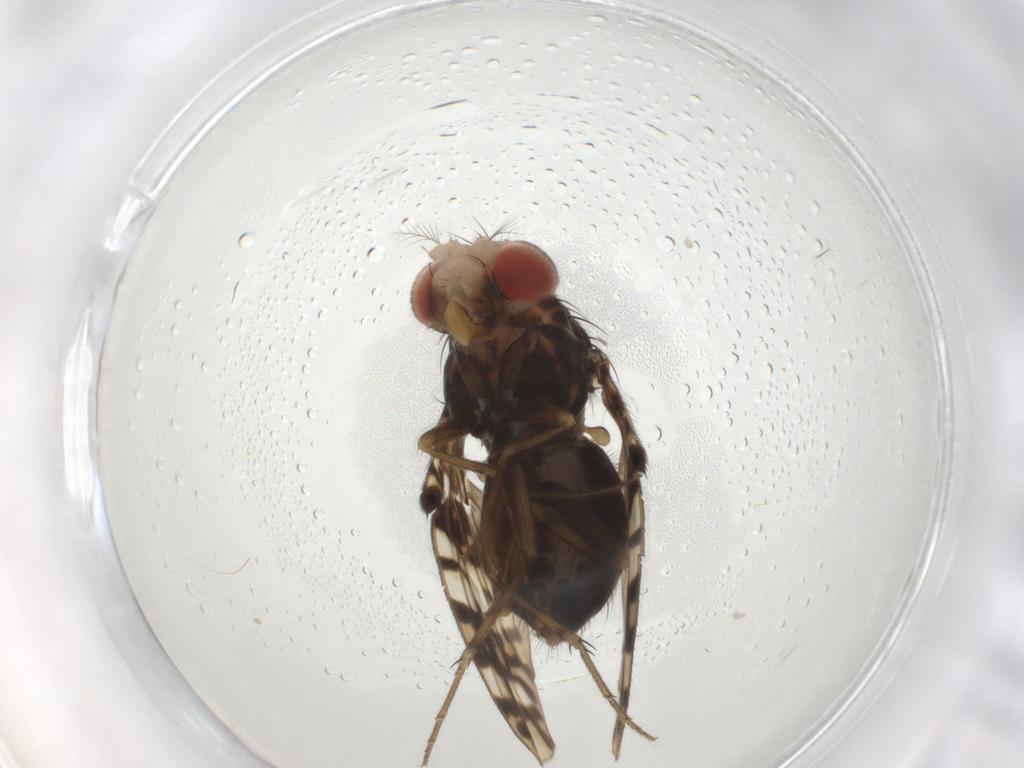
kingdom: Animalia
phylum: Arthropoda
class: Insecta
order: Diptera
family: Drosophilidae
